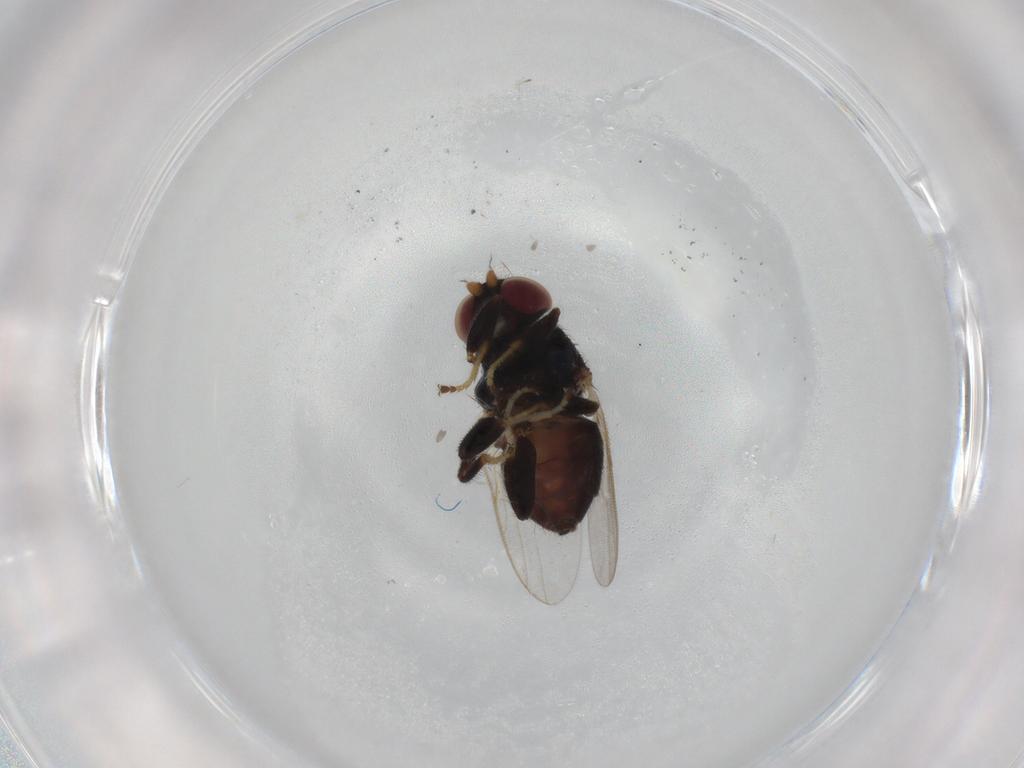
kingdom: Animalia
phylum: Arthropoda
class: Insecta
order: Diptera
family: Chloropidae
